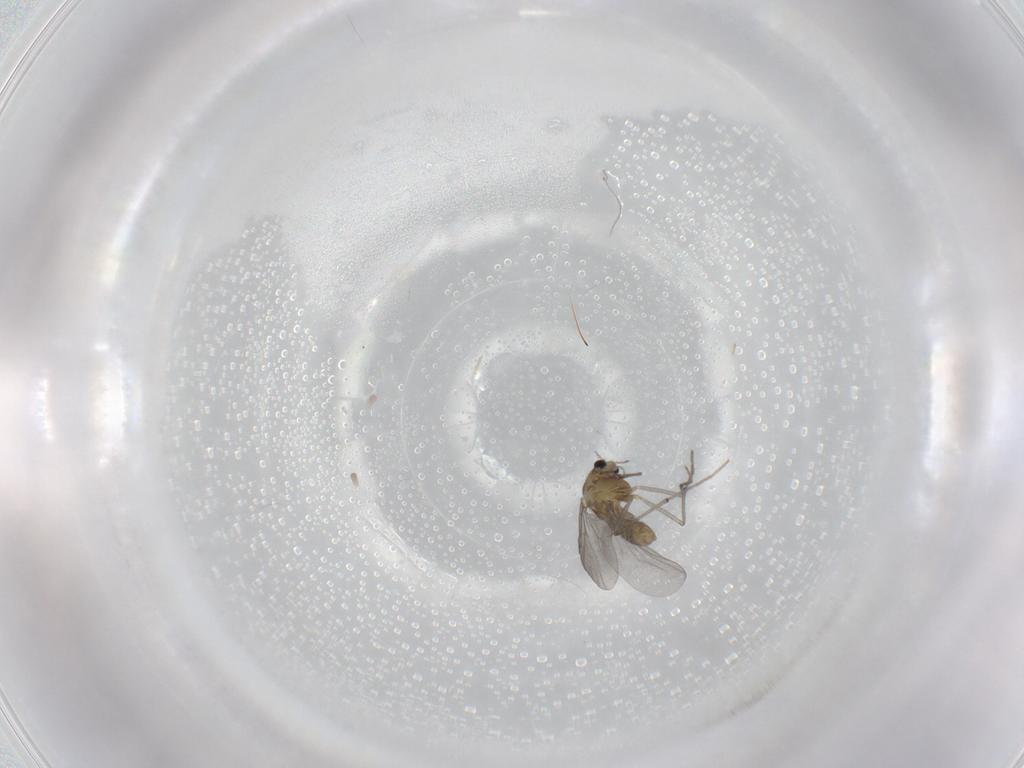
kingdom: Animalia
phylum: Arthropoda
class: Insecta
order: Diptera
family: Chironomidae
